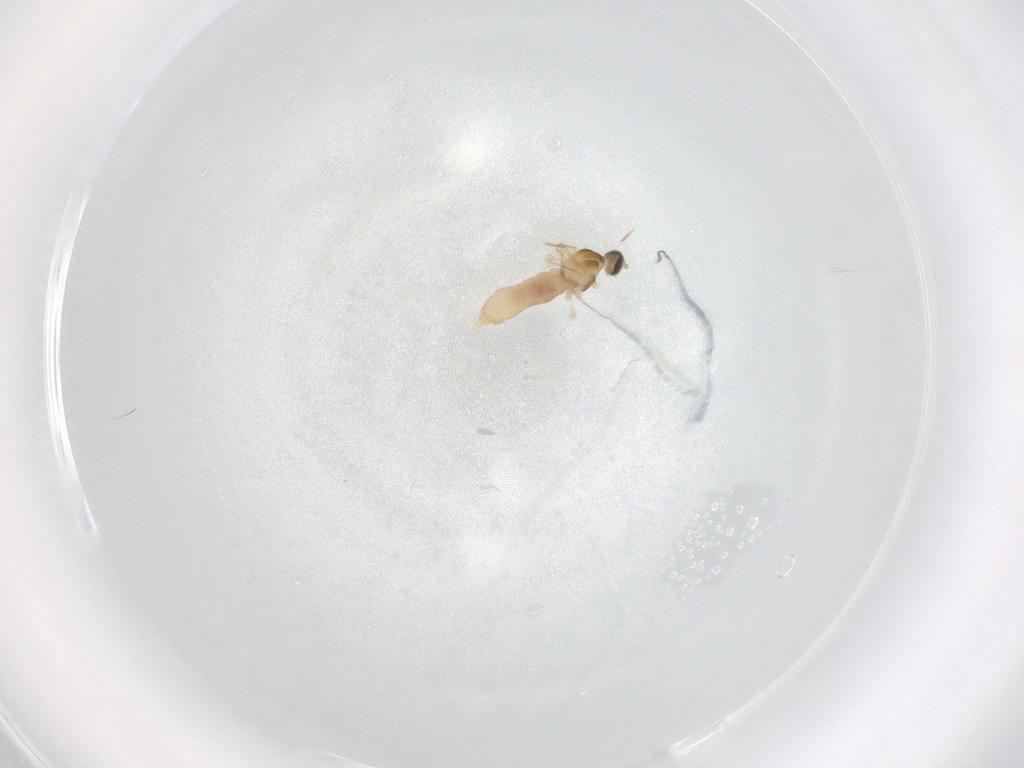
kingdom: Animalia
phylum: Arthropoda
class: Insecta
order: Diptera
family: Cecidomyiidae
